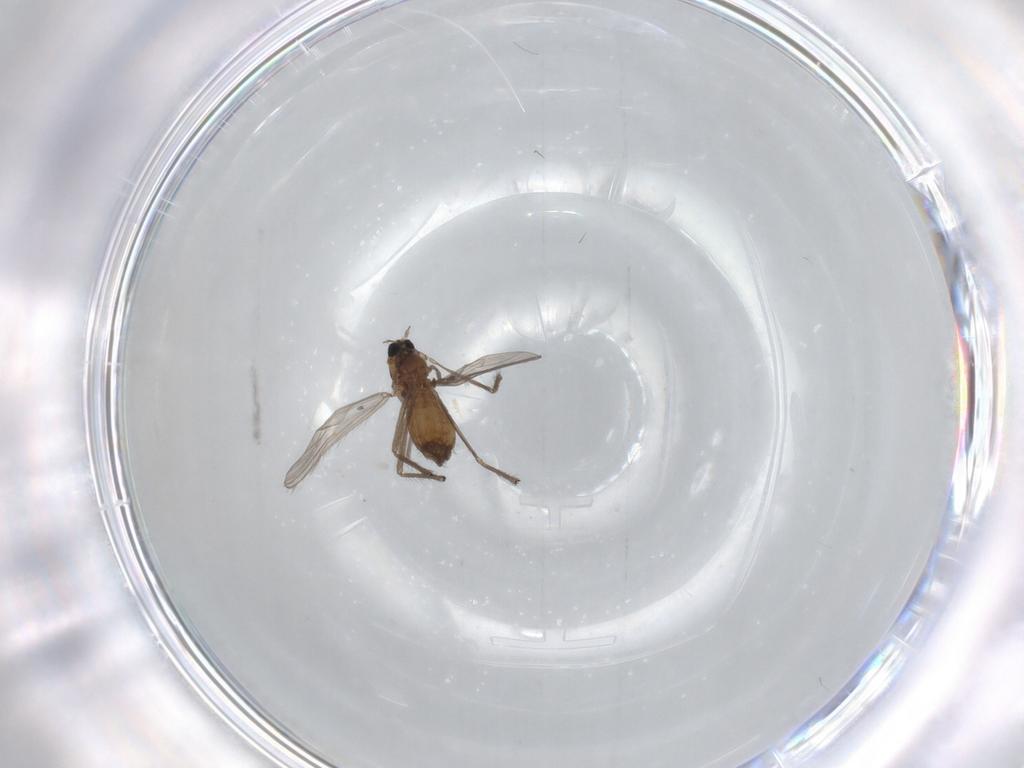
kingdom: Animalia
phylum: Arthropoda
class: Insecta
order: Diptera
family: Chironomidae
